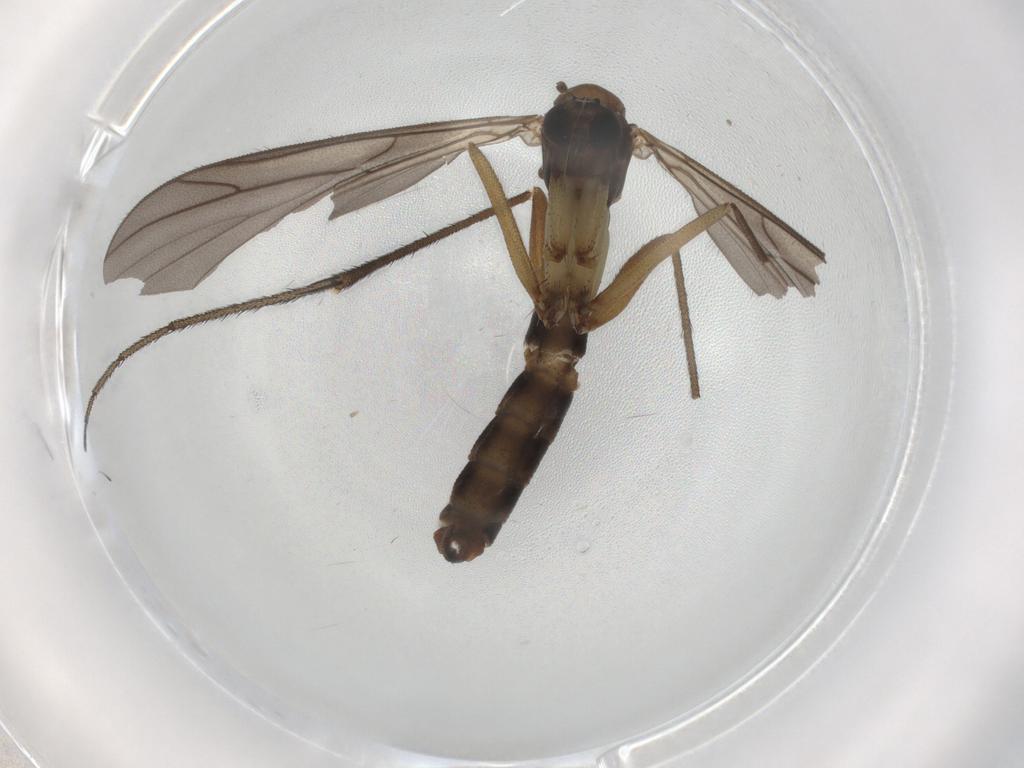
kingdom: Animalia
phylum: Arthropoda
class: Insecta
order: Diptera
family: Chironomidae
